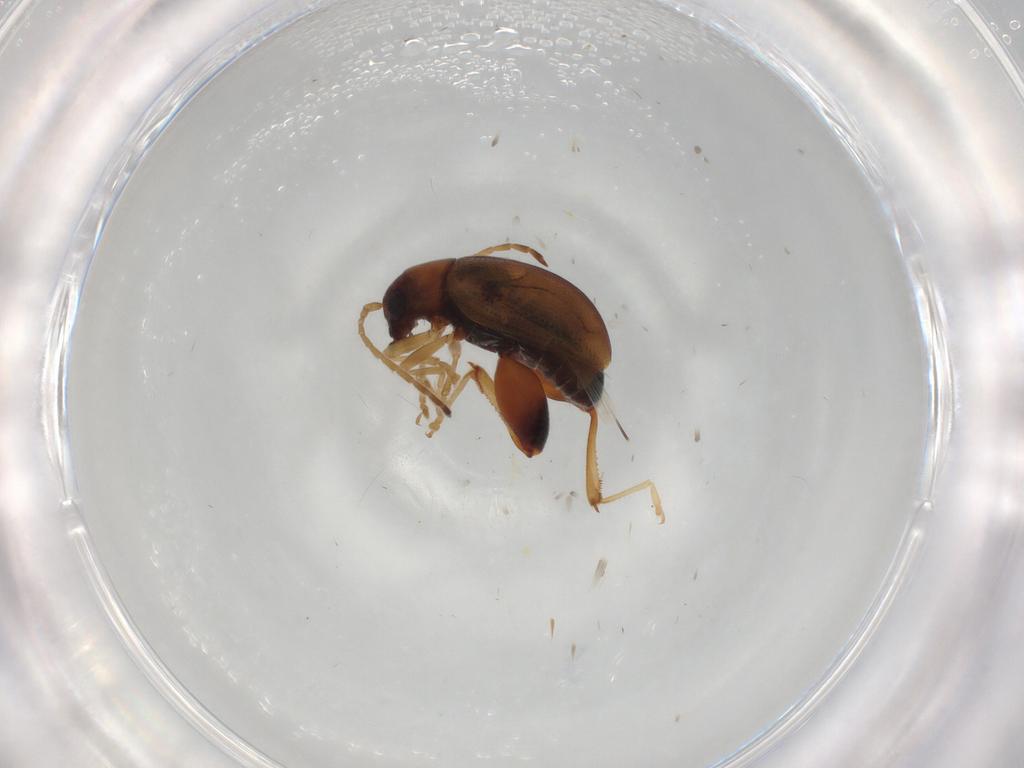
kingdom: Animalia
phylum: Arthropoda
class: Insecta
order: Coleoptera
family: Chrysomelidae
